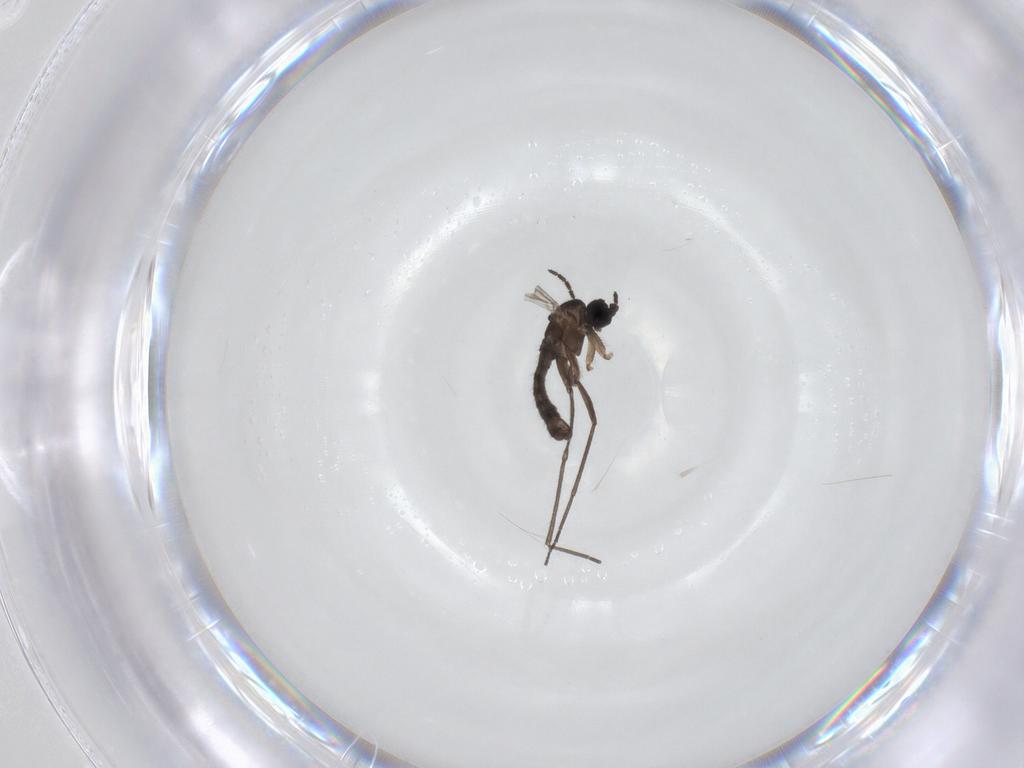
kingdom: Animalia
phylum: Arthropoda
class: Insecta
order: Diptera
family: Sciaridae
